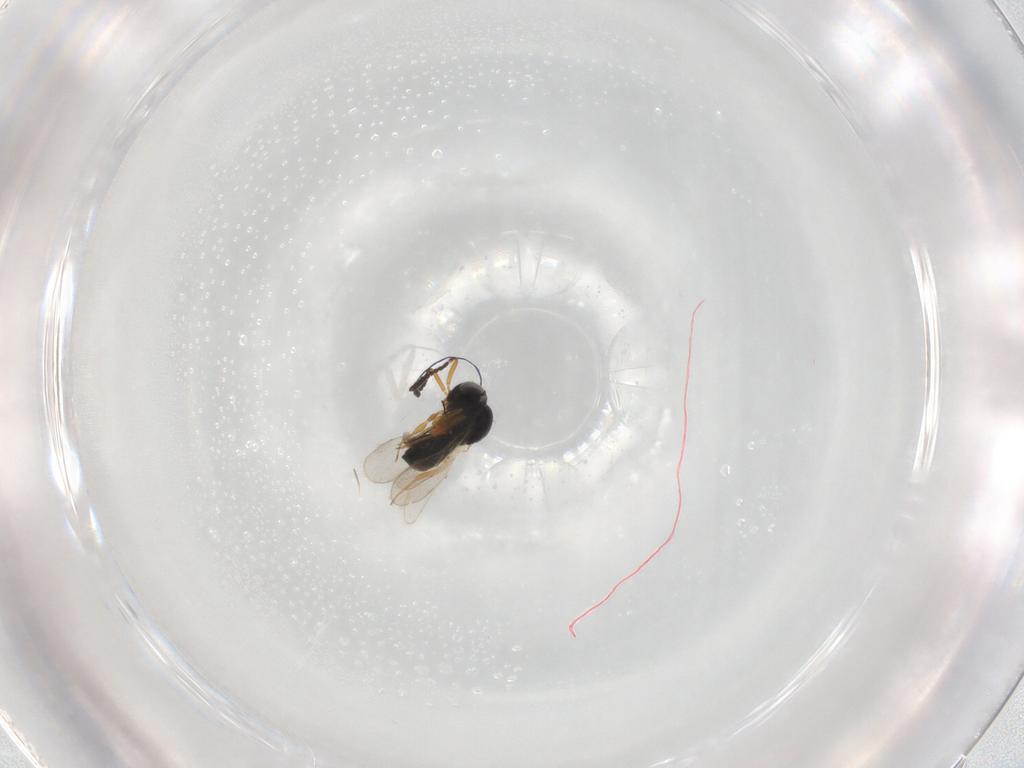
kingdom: Animalia
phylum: Arthropoda
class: Insecta
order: Hymenoptera
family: Scelionidae
